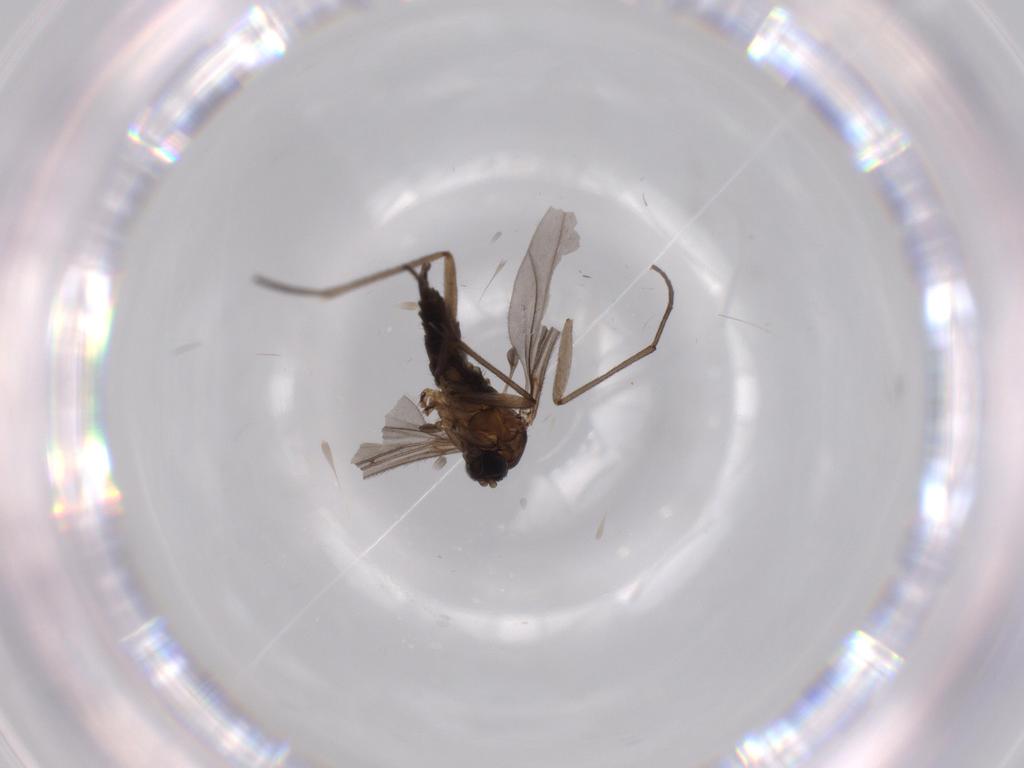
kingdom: Animalia
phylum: Arthropoda
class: Insecta
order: Diptera
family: Sciaridae
